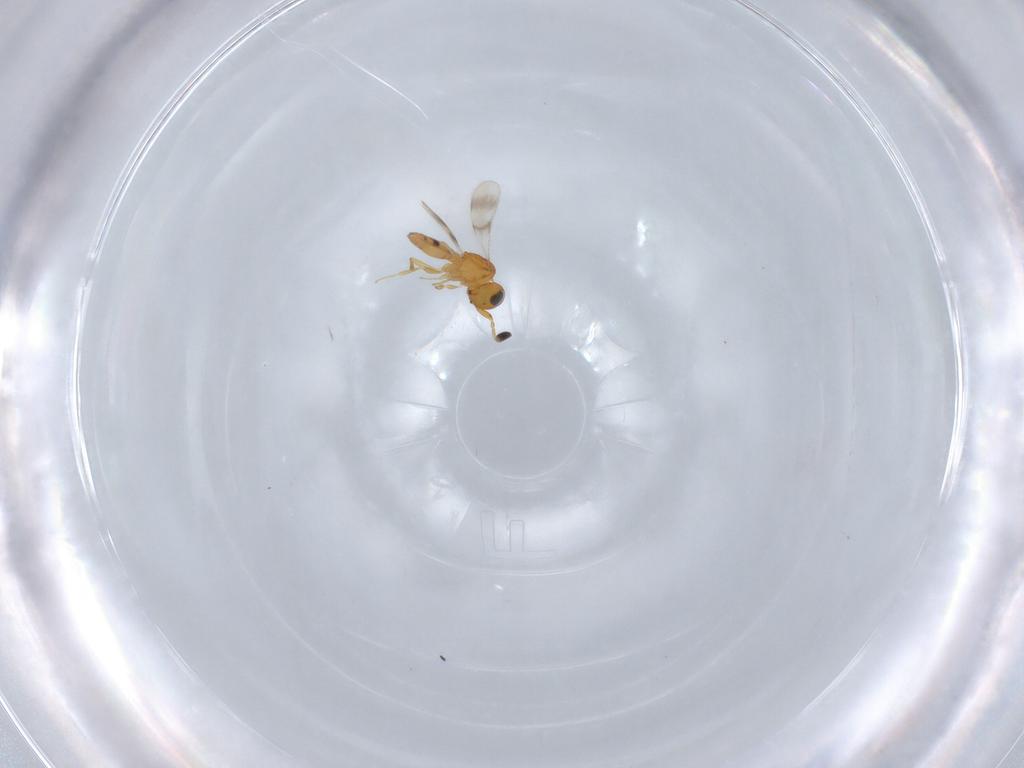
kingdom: Animalia
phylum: Arthropoda
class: Insecta
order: Hymenoptera
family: Scelionidae
